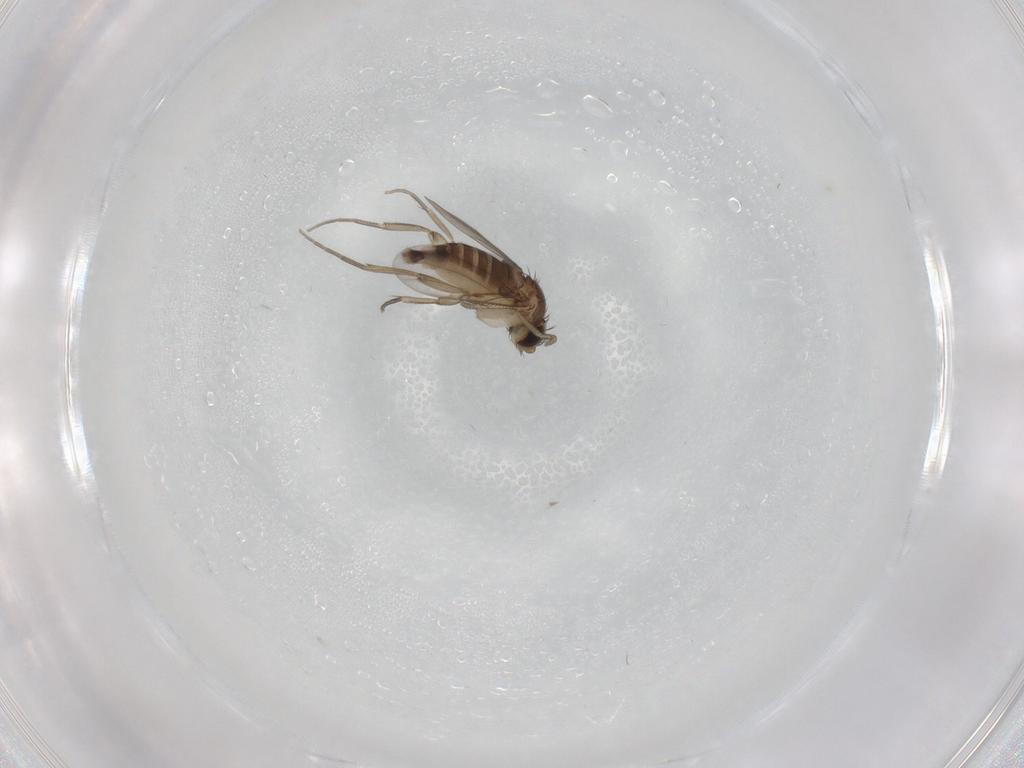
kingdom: Animalia
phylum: Arthropoda
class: Insecta
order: Diptera
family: Phoridae
